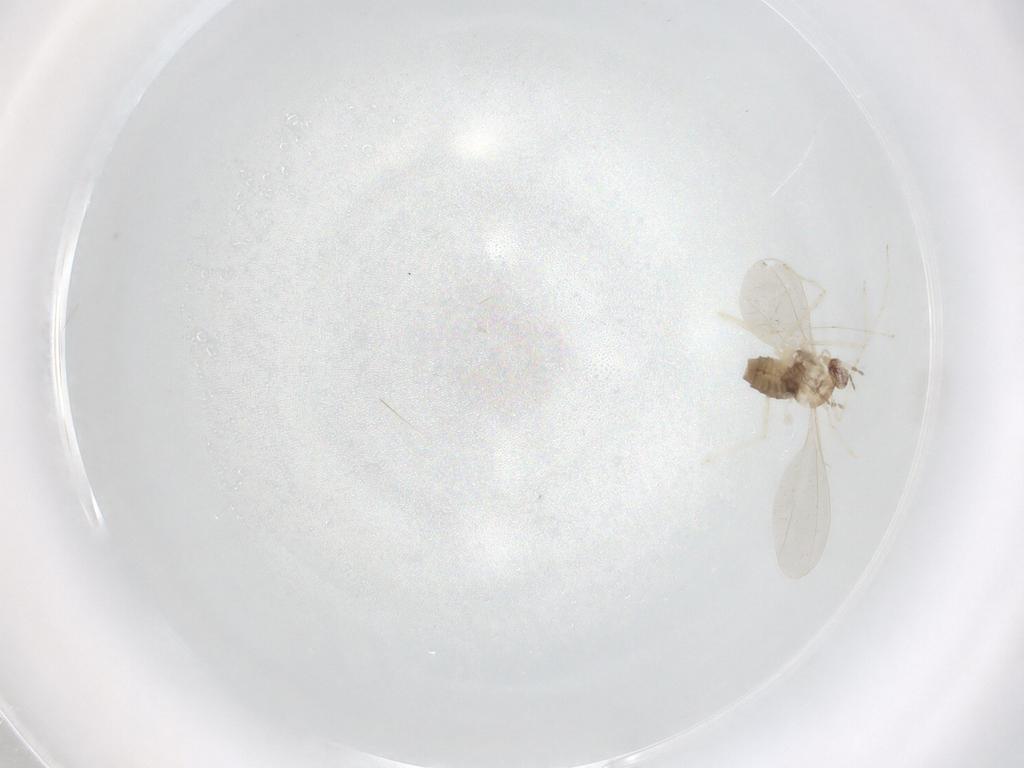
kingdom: Animalia
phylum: Arthropoda
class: Insecta
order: Diptera
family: Cecidomyiidae
